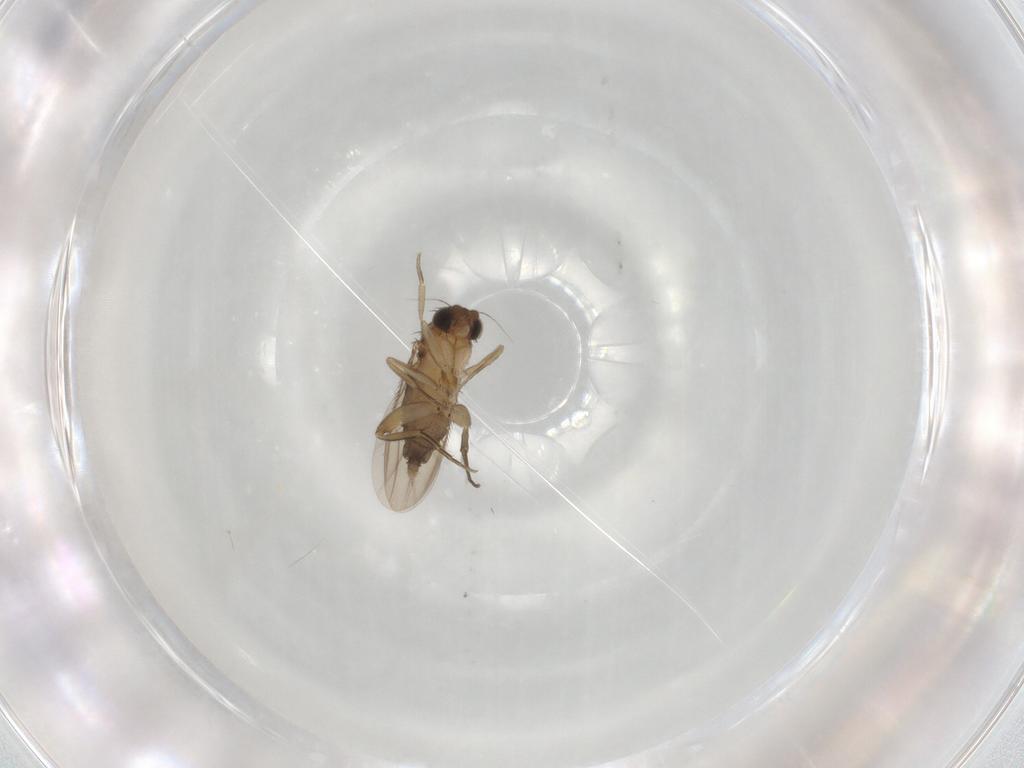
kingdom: Animalia
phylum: Arthropoda
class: Insecta
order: Diptera
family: Phoridae
